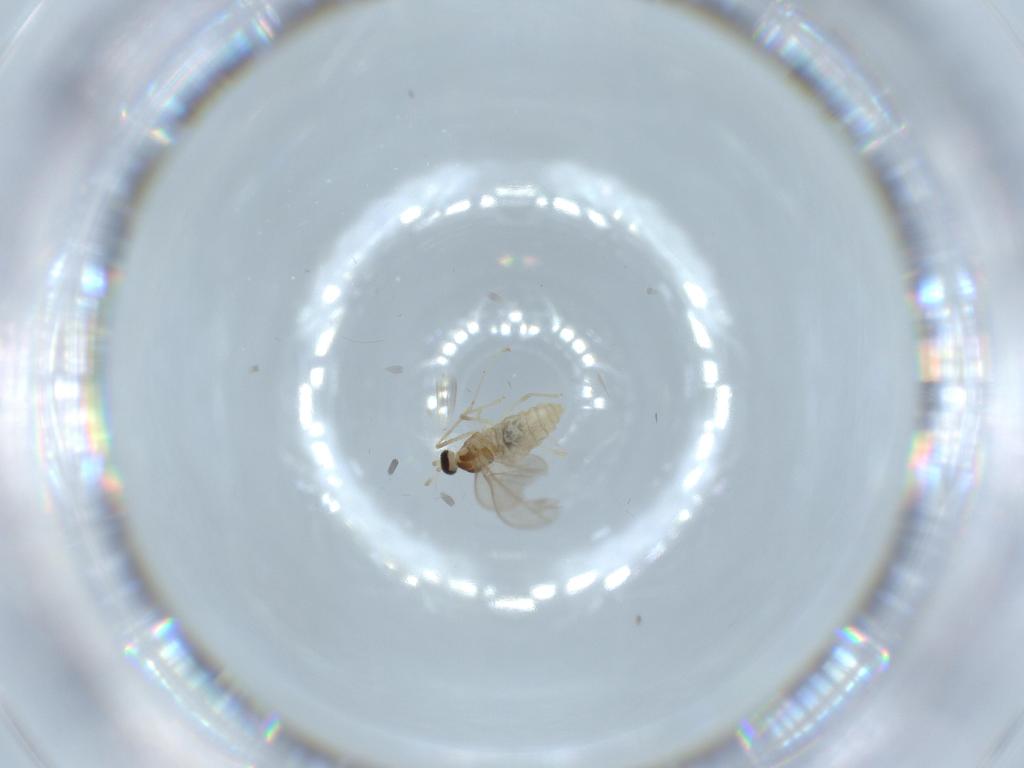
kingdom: Animalia
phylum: Arthropoda
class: Insecta
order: Diptera
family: Cecidomyiidae
